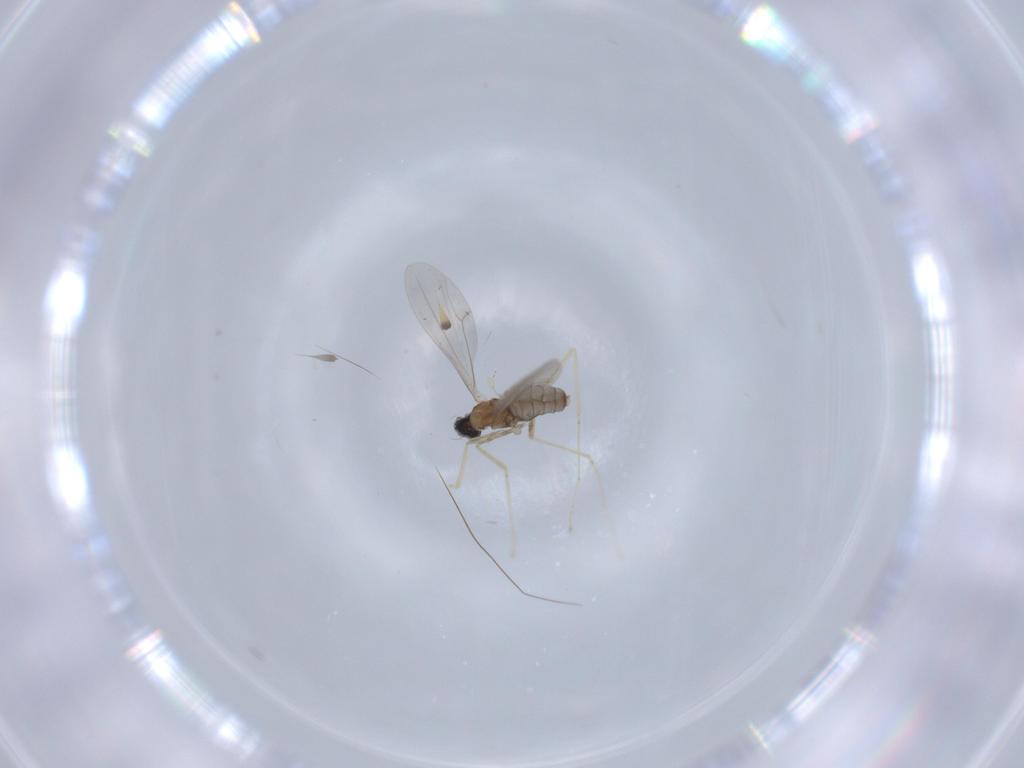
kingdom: Animalia
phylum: Arthropoda
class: Insecta
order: Diptera
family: Cecidomyiidae
